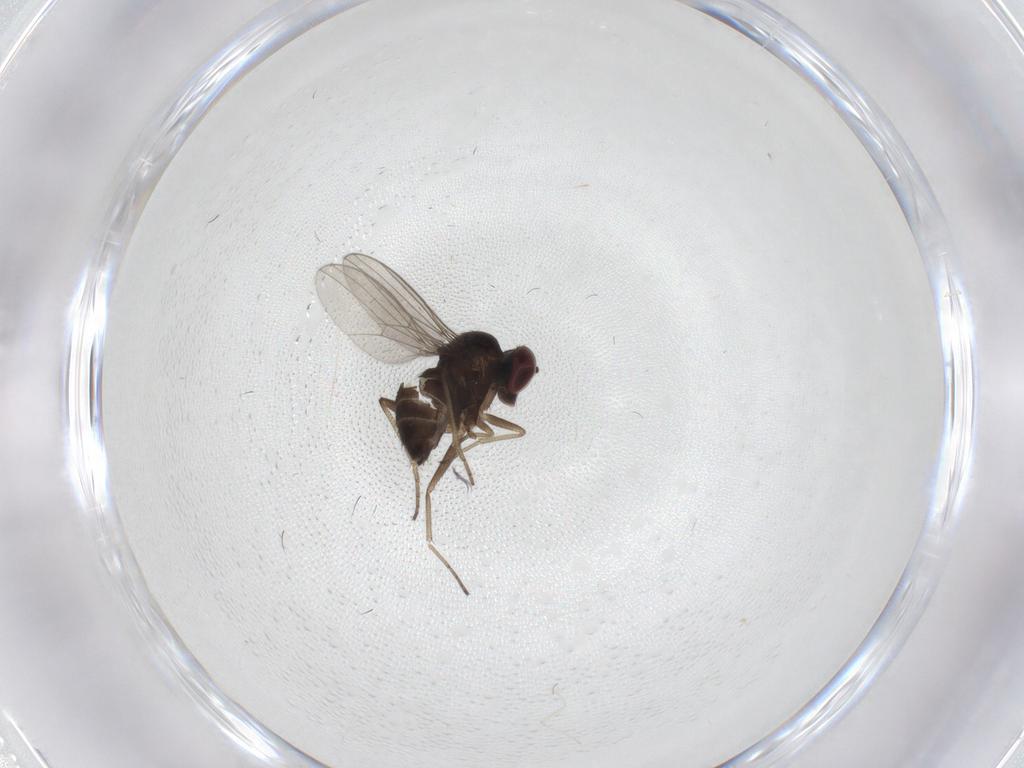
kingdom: Animalia
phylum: Arthropoda
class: Insecta
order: Diptera
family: Dolichopodidae
